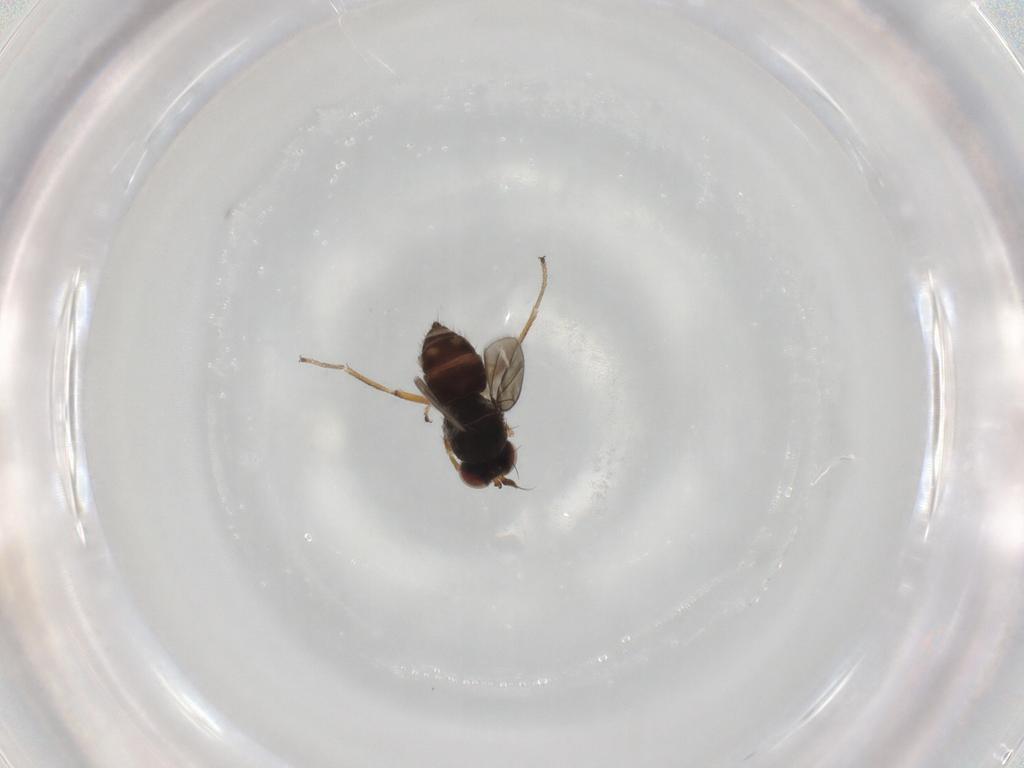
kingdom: Animalia
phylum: Arthropoda
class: Insecta
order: Diptera
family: Ephydridae
